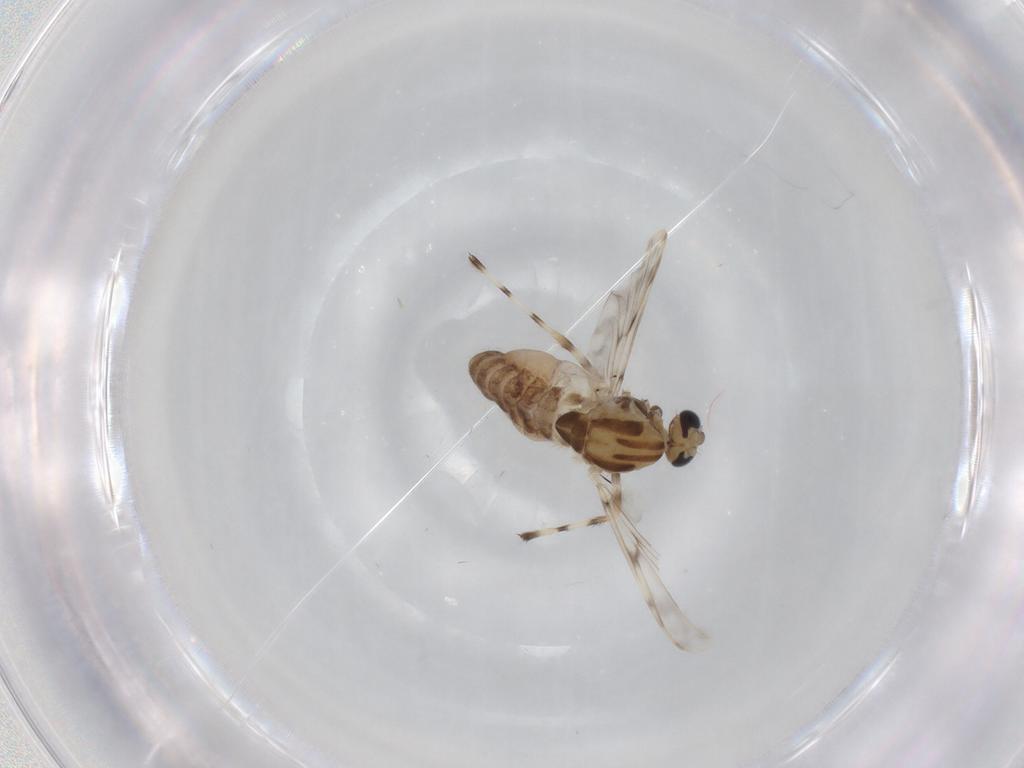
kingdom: Animalia
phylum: Arthropoda
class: Insecta
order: Diptera
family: Chironomidae
